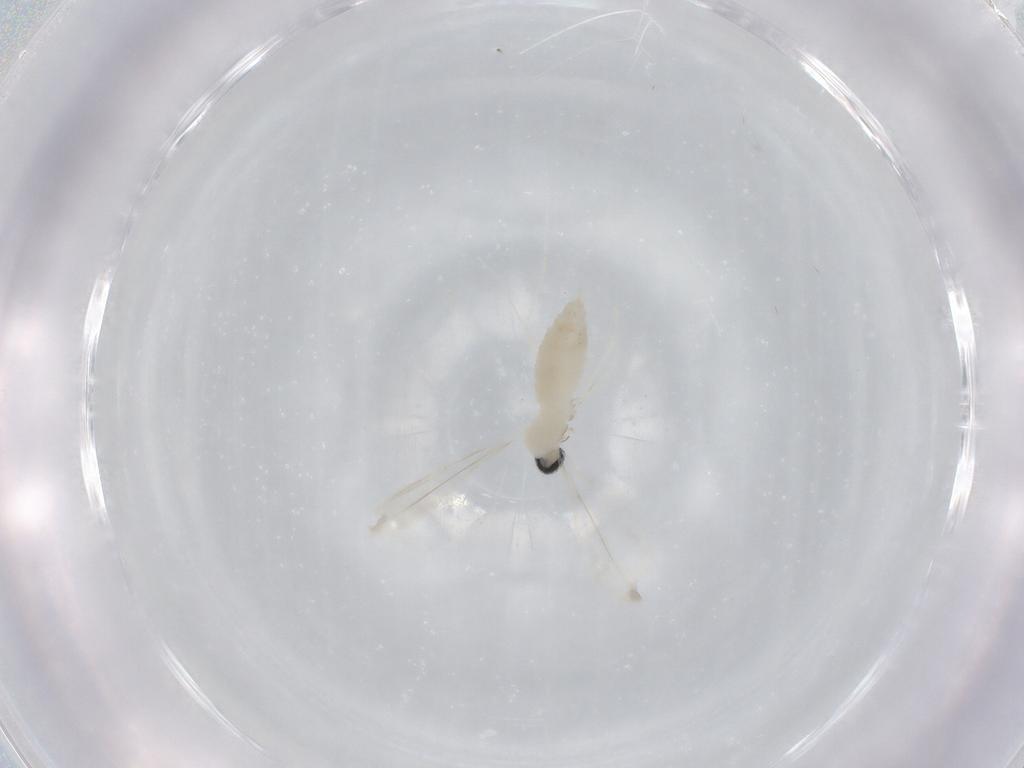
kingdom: Animalia
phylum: Arthropoda
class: Insecta
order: Diptera
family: Cecidomyiidae
